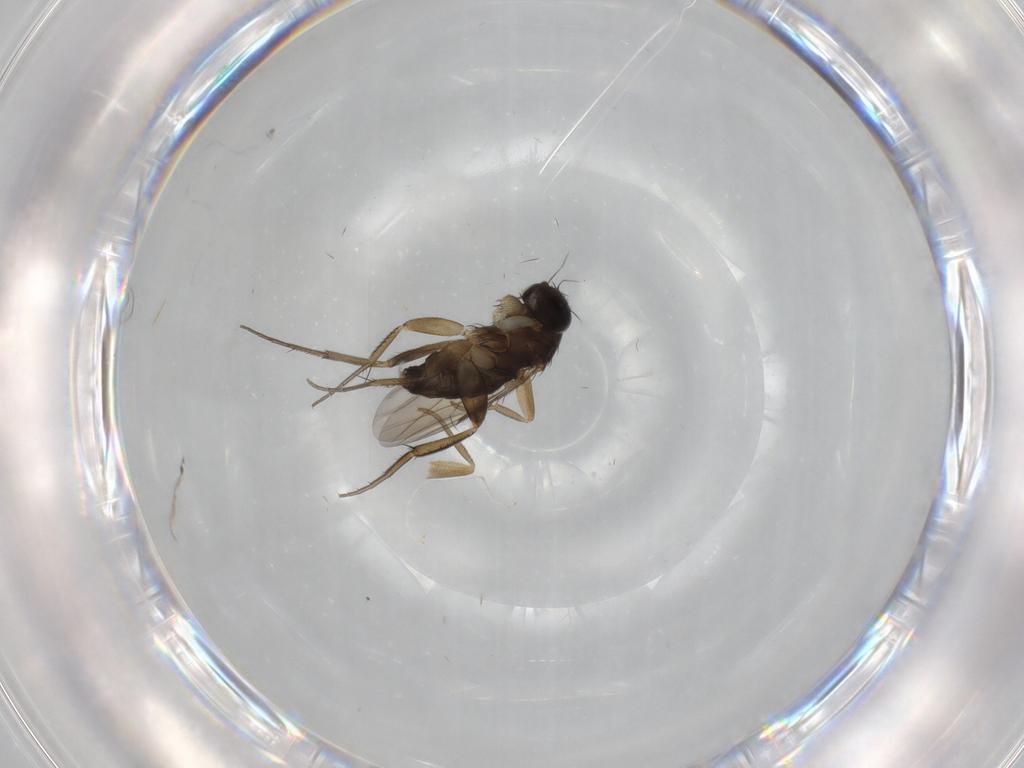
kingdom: Animalia
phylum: Arthropoda
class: Insecta
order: Diptera
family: Phoridae
